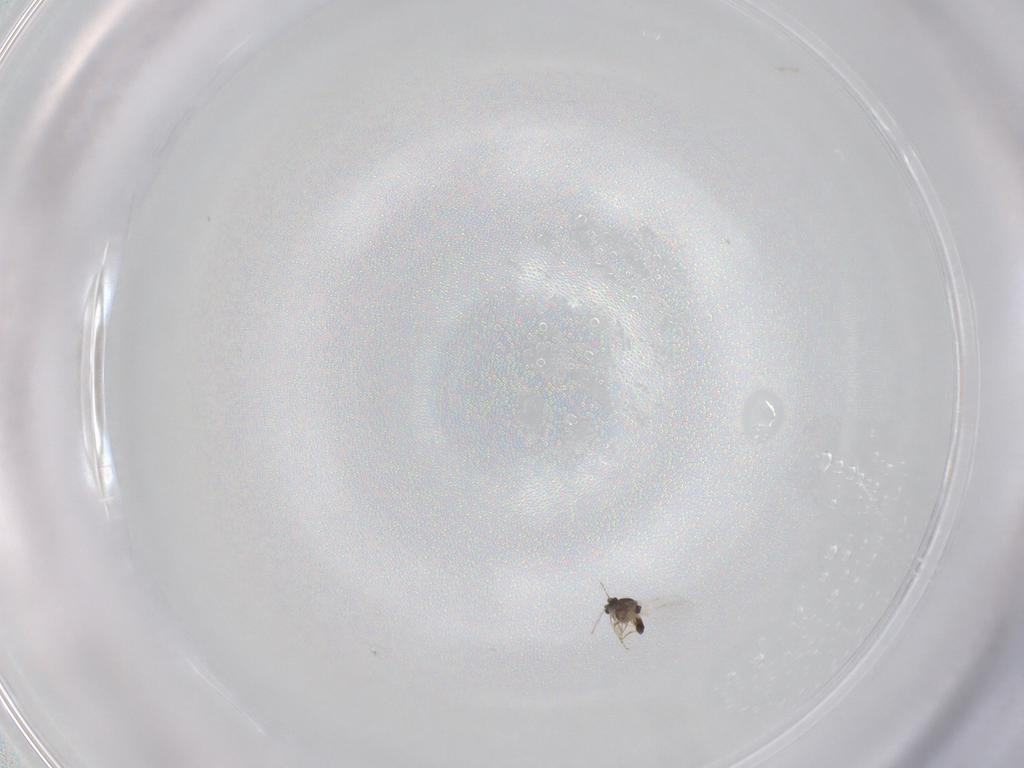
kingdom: Animalia
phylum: Arthropoda
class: Insecta
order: Diptera
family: Ceratopogonidae
